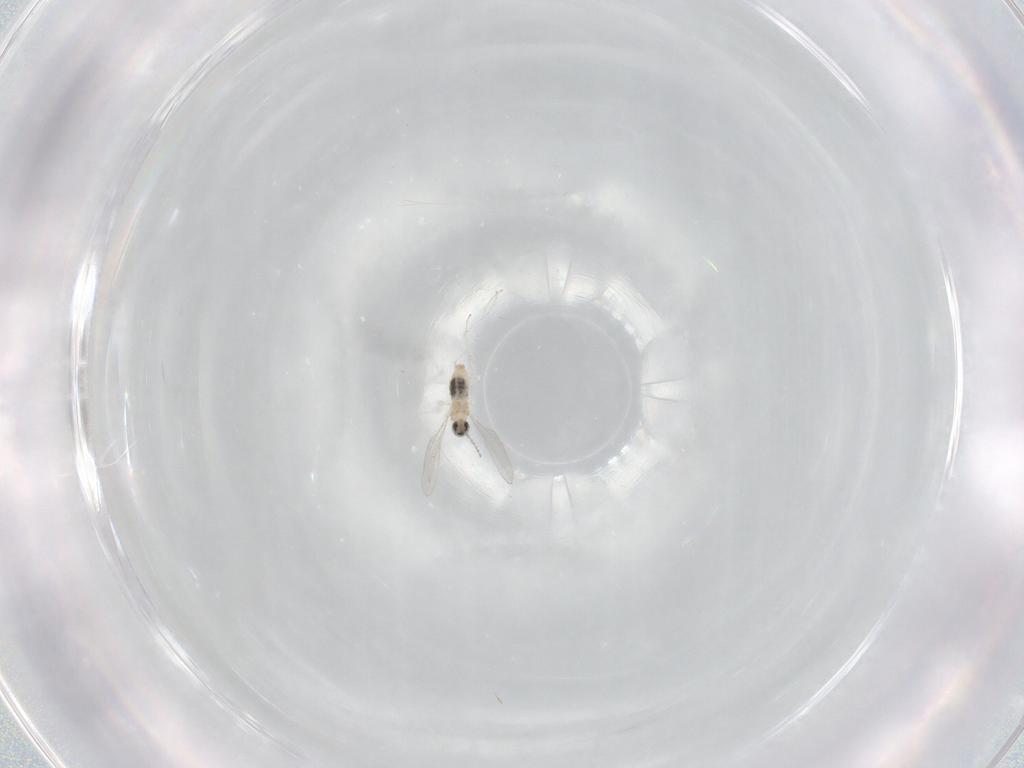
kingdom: Animalia
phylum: Arthropoda
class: Insecta
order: Diptera
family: Cecidomyiidae
